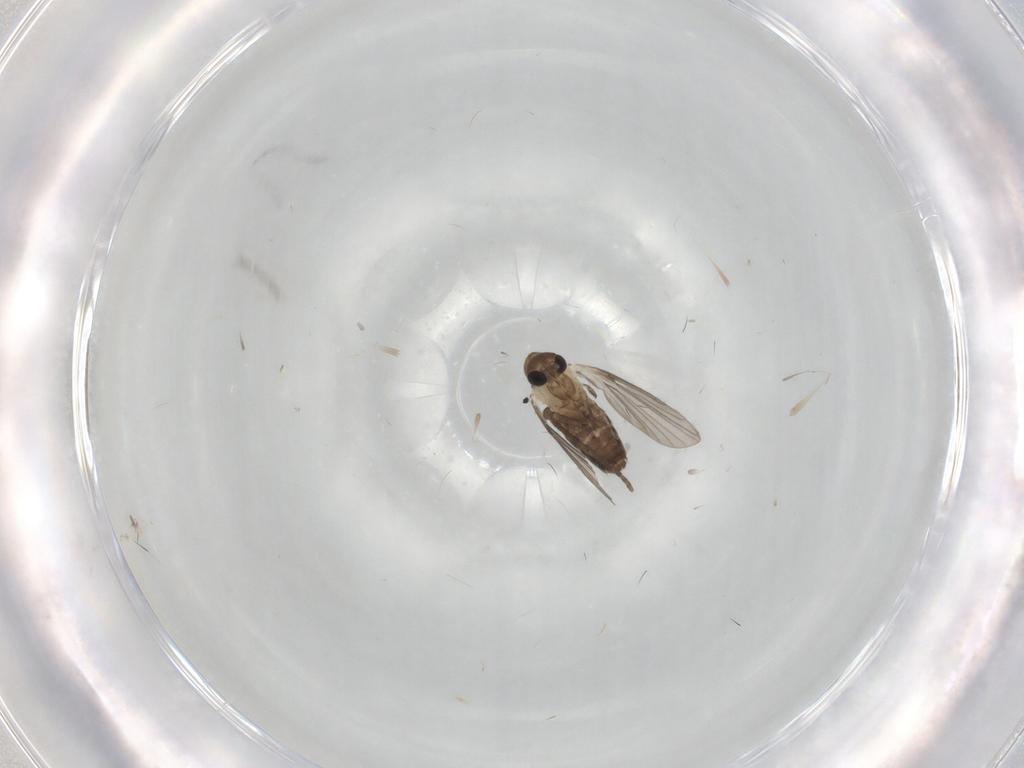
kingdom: Animalia
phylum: Arthropoda
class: Insecta
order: Diptera
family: Psychodidae
